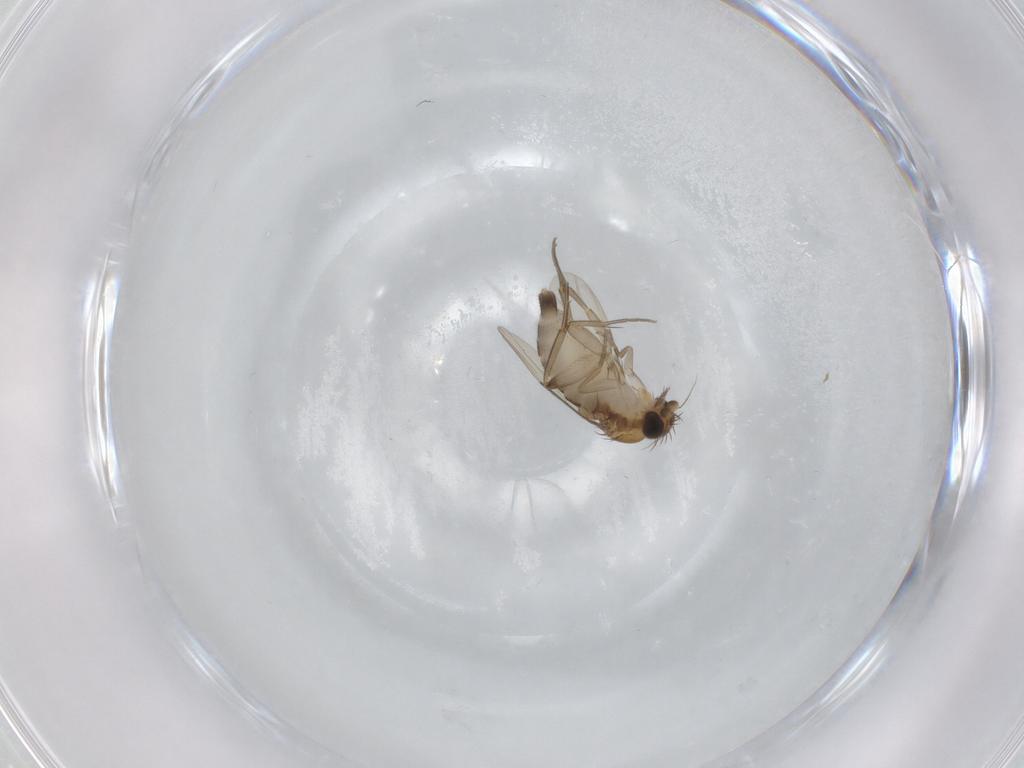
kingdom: Animalia
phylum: Arthropoda
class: Insecta
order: Diptera
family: Phoridae
